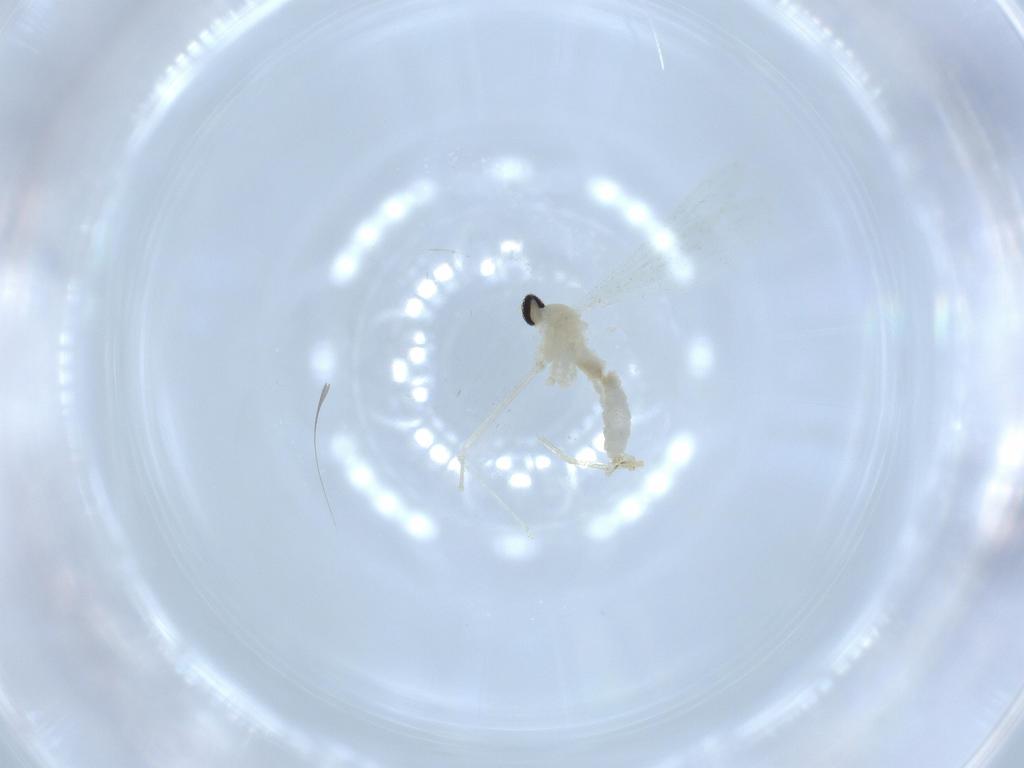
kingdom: Animalia
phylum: Arthropoda
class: Insecta
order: Diptera
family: Cecidomyiidae
